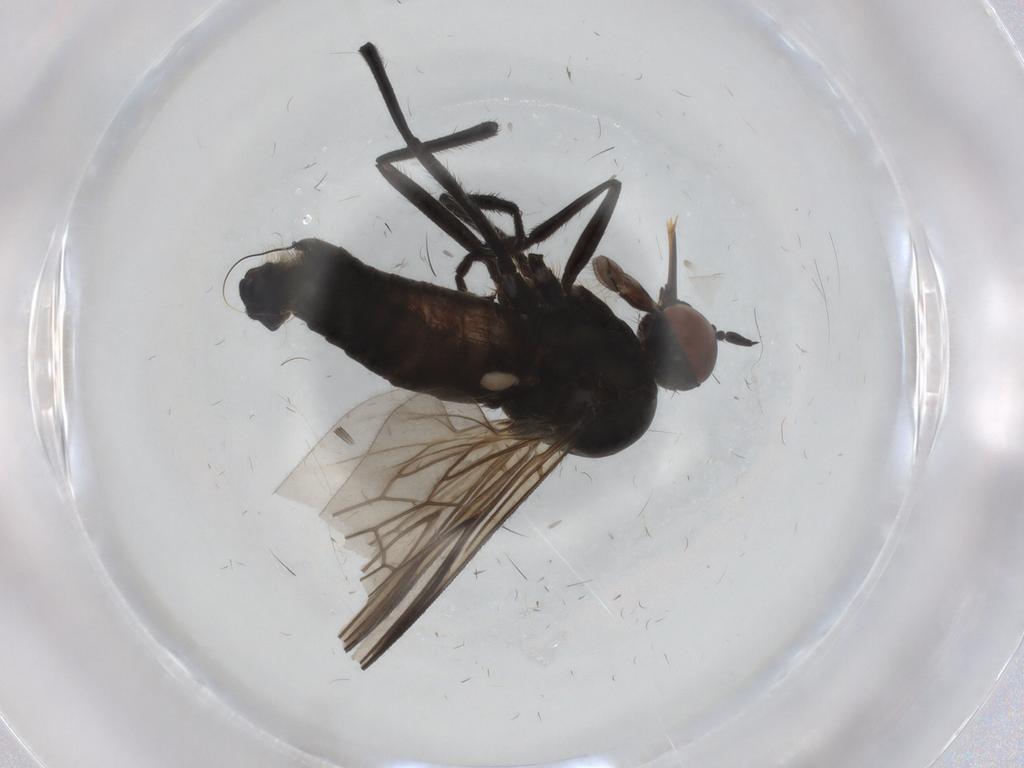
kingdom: Animalia
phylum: Arthropoda
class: Insecta
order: Diptera
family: Empididae
